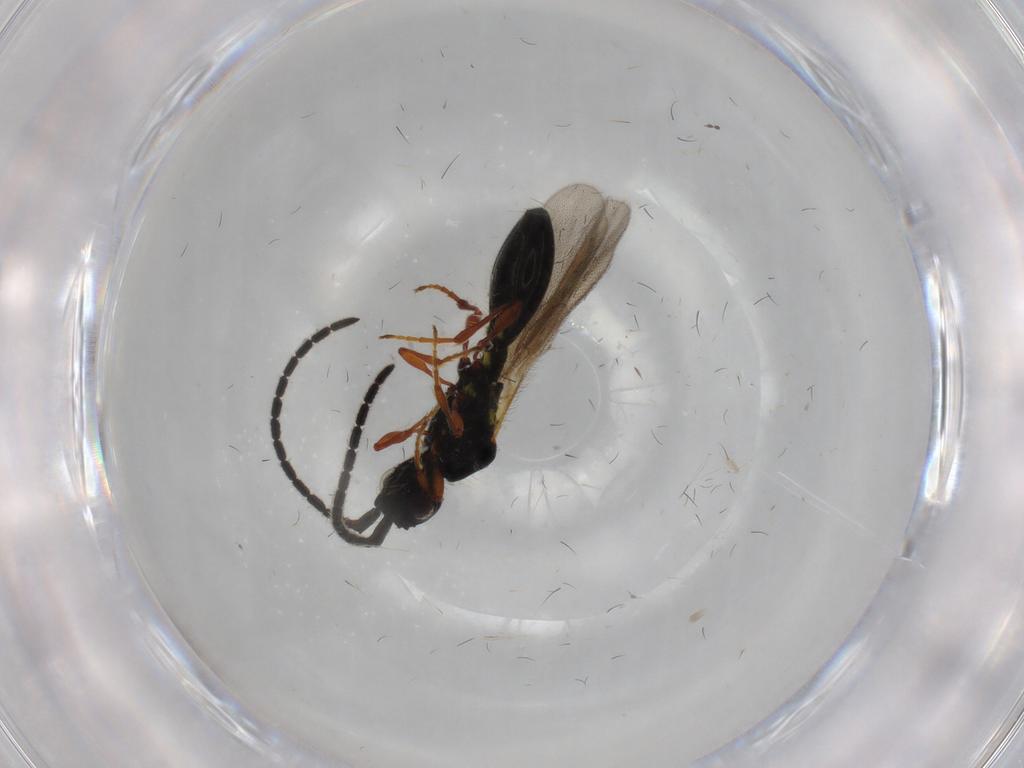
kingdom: Animalia
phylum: Arthropoda
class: Insecta
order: Hymenoptera
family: Diapriidae
